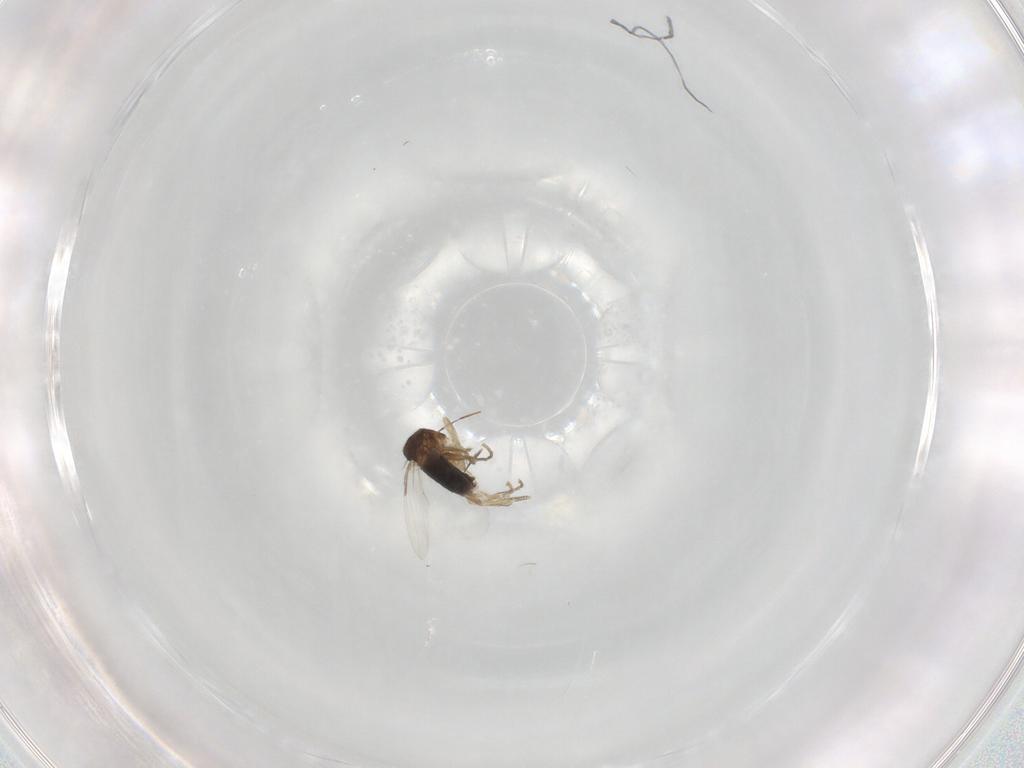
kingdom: Animalia
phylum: Arthropoda
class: Insecta
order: Diptera
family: Phoridae
